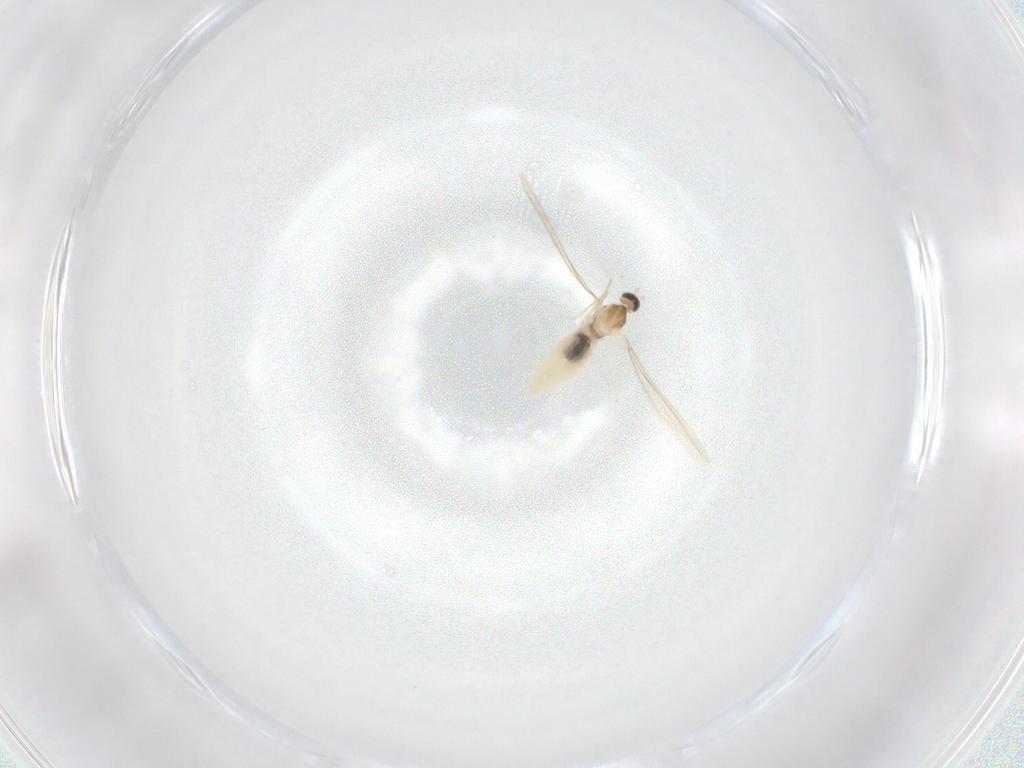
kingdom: Animalia
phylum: Arthropoda
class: Insecta
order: Diptera
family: Cecidomyiidae
